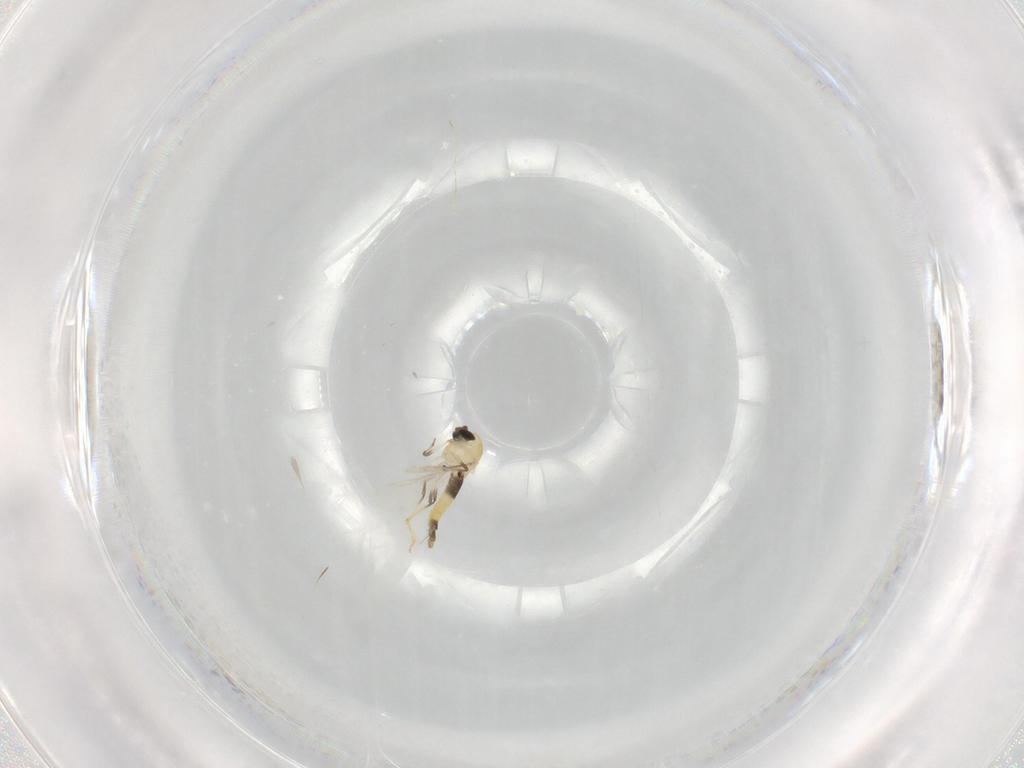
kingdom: Animalia
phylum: Arthropoda
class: Insecta
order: Diptera
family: Chironomidae
